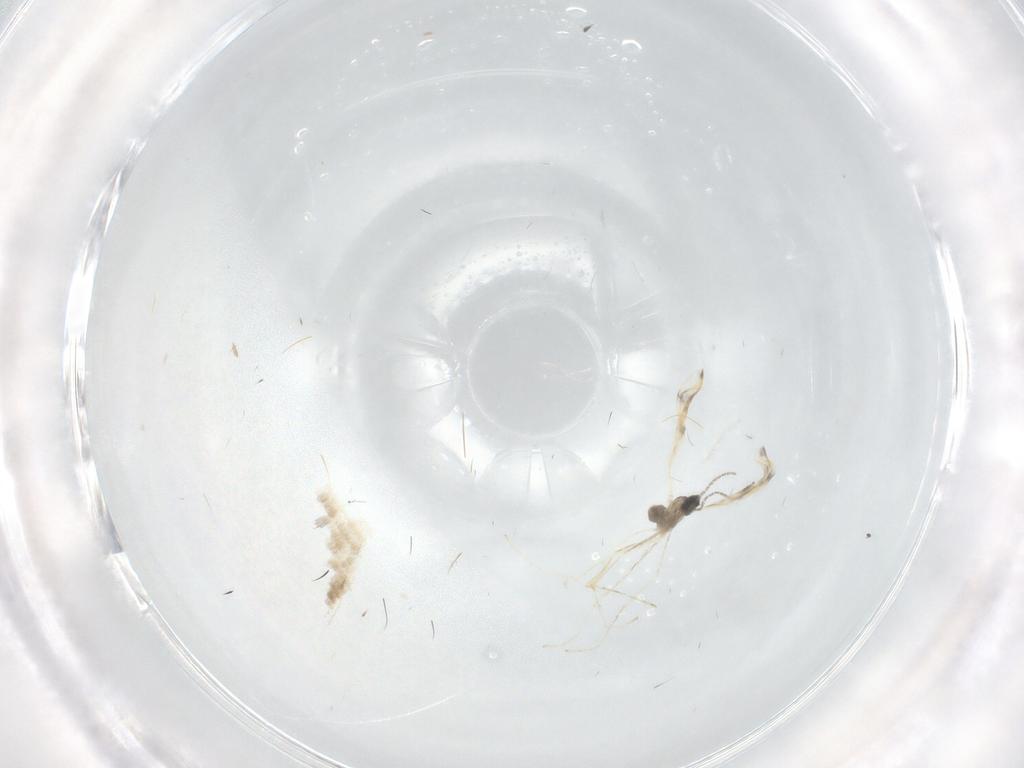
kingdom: Animalia
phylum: Arthropoda
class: Insecta
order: Diptera
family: Cecidomyiidae
